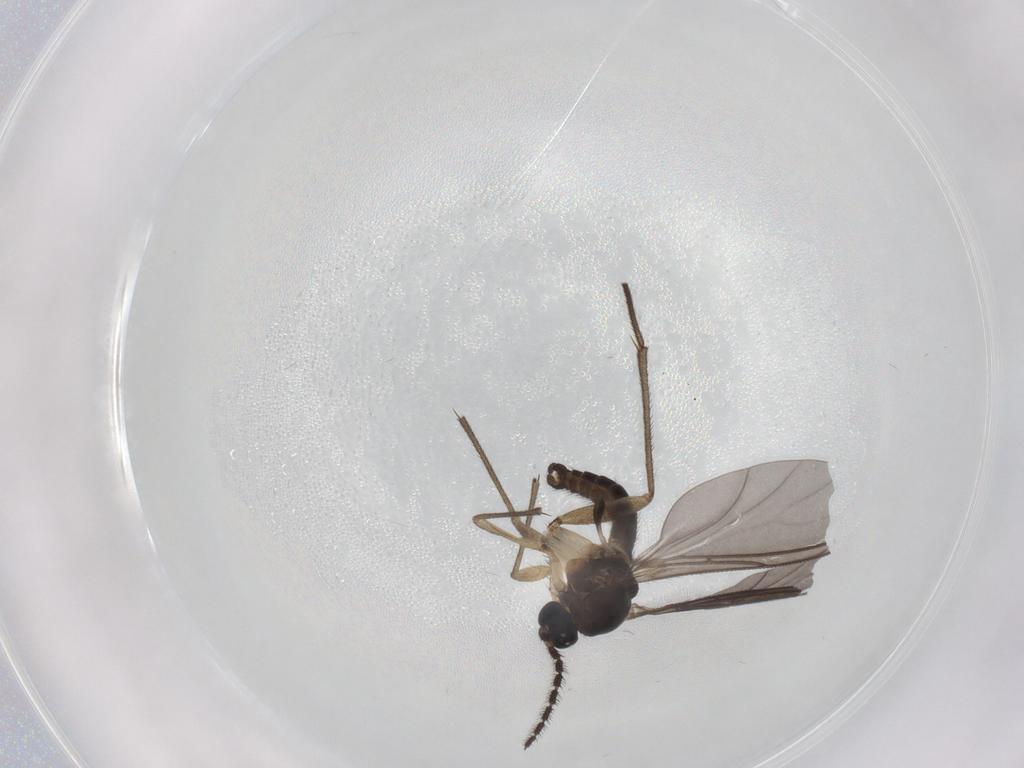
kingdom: Animalia
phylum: Arthropoda
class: Insecta
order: Diptera
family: Sciaridae
